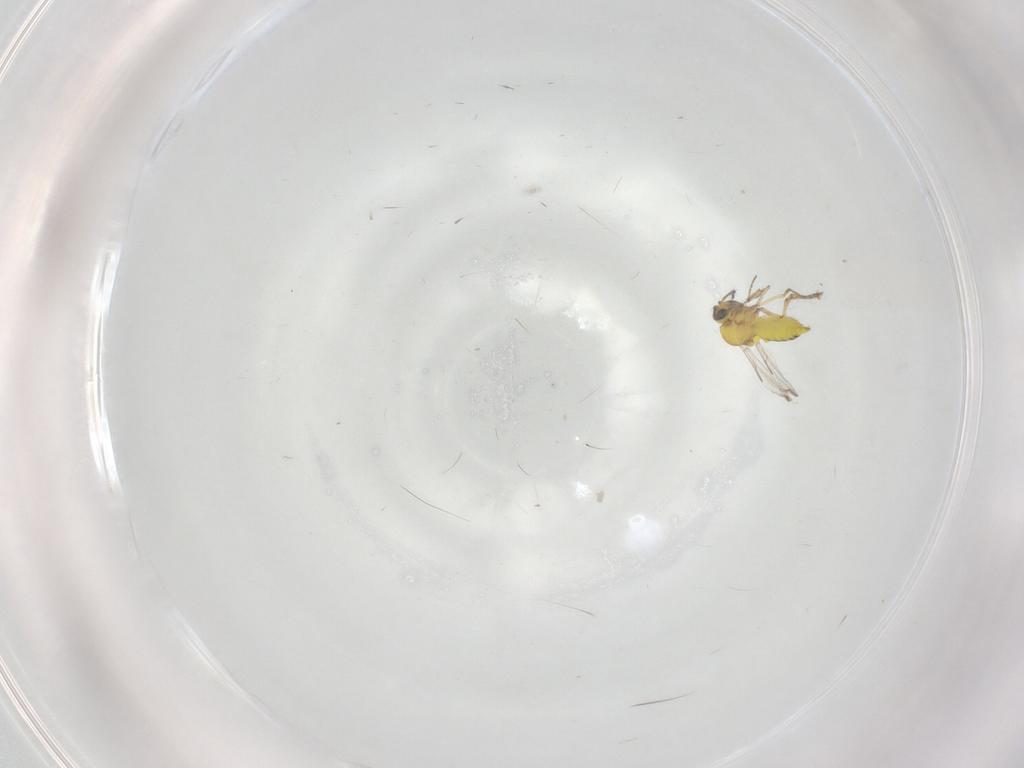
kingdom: Animalia
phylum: Arthropoda
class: Insecta
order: Diptera
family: Ceratopogonidae
